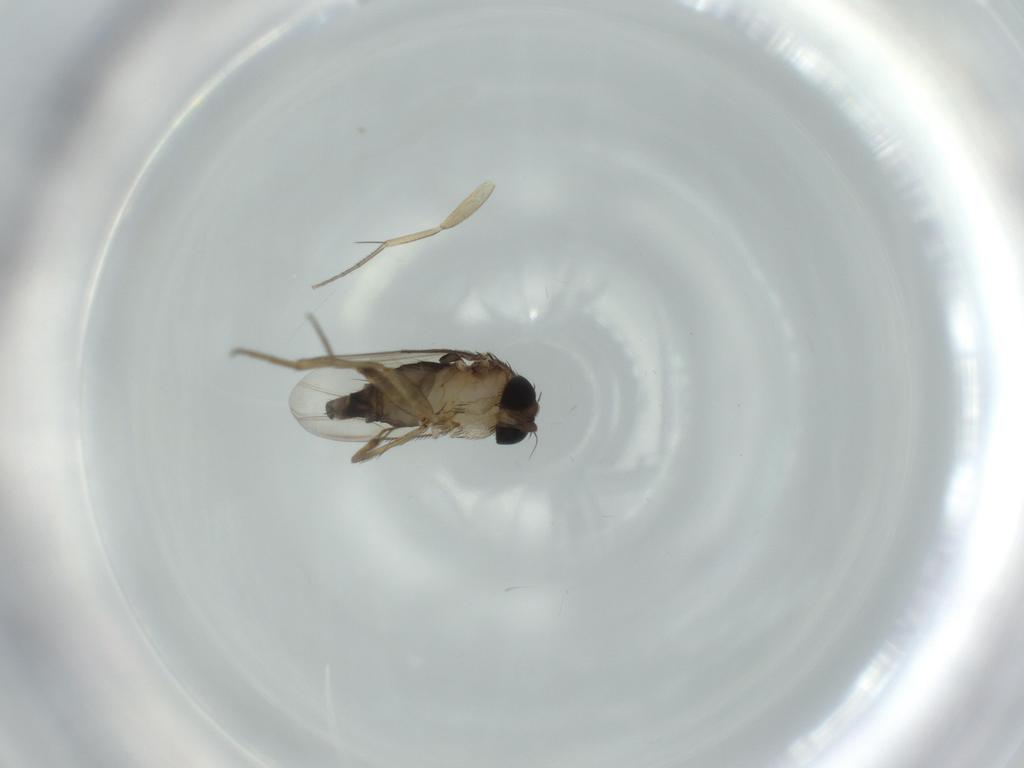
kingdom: Animalia
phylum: Arthropoda
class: Insecta
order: Diptera
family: Phoridae
